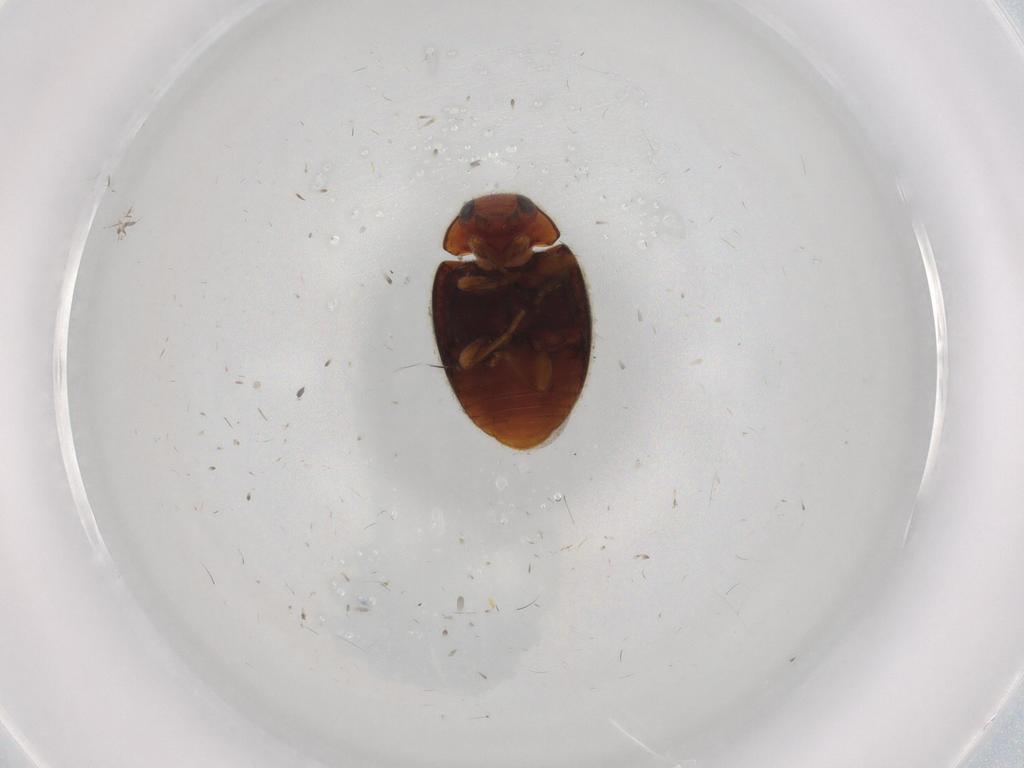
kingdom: Animalia
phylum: Arthropoda
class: Insecta
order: Coleoptera
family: Coccinellidae
